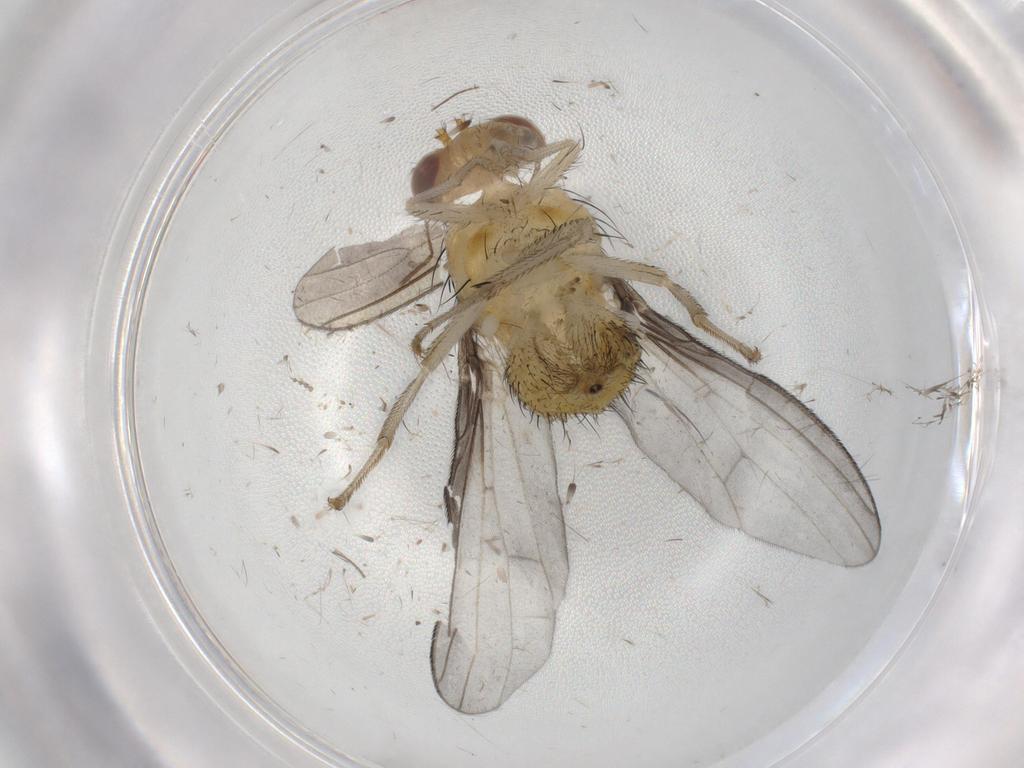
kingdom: Animalia
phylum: Arthropoda
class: Insecta
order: Diptera
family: Lauxaniidae
